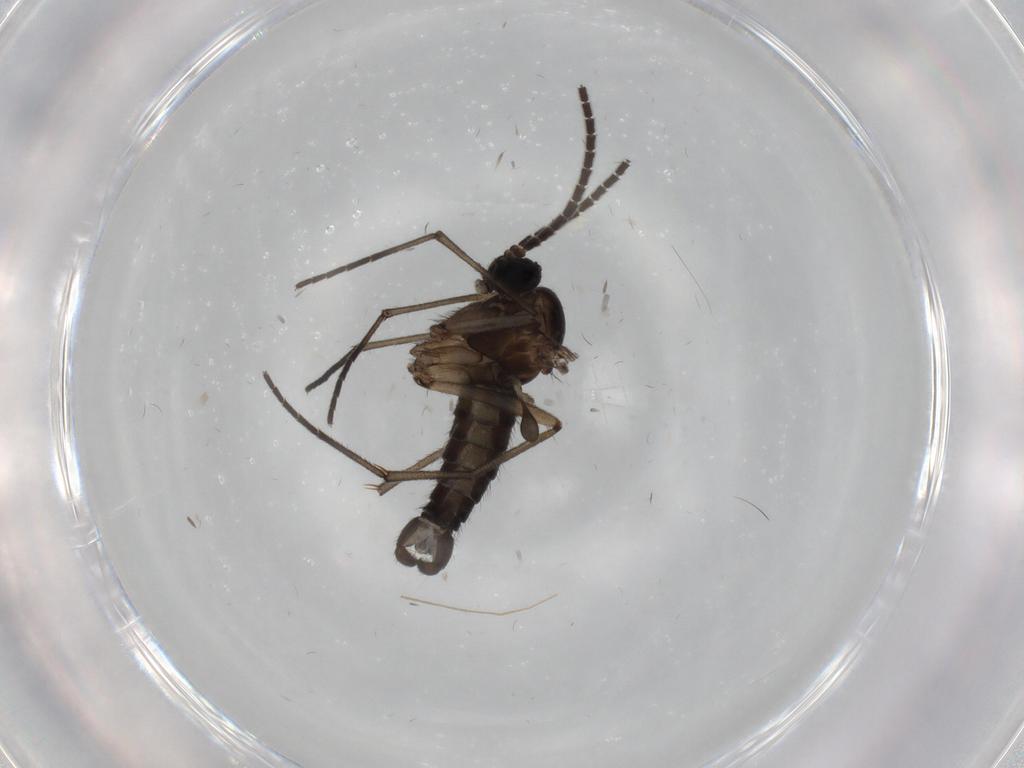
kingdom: Animalia
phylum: Arthropoda
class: Insecta
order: Diptera
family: Sciaridae
